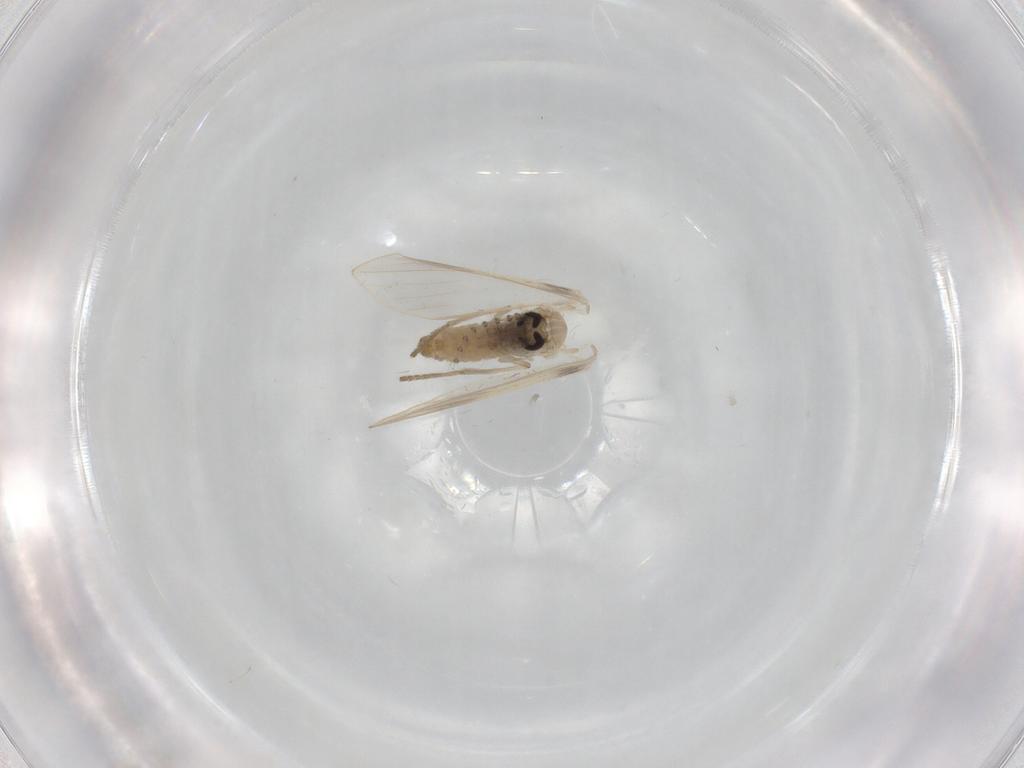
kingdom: Animalia
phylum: Arthropoda
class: Insecta
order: Diptera
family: Psychodidae
